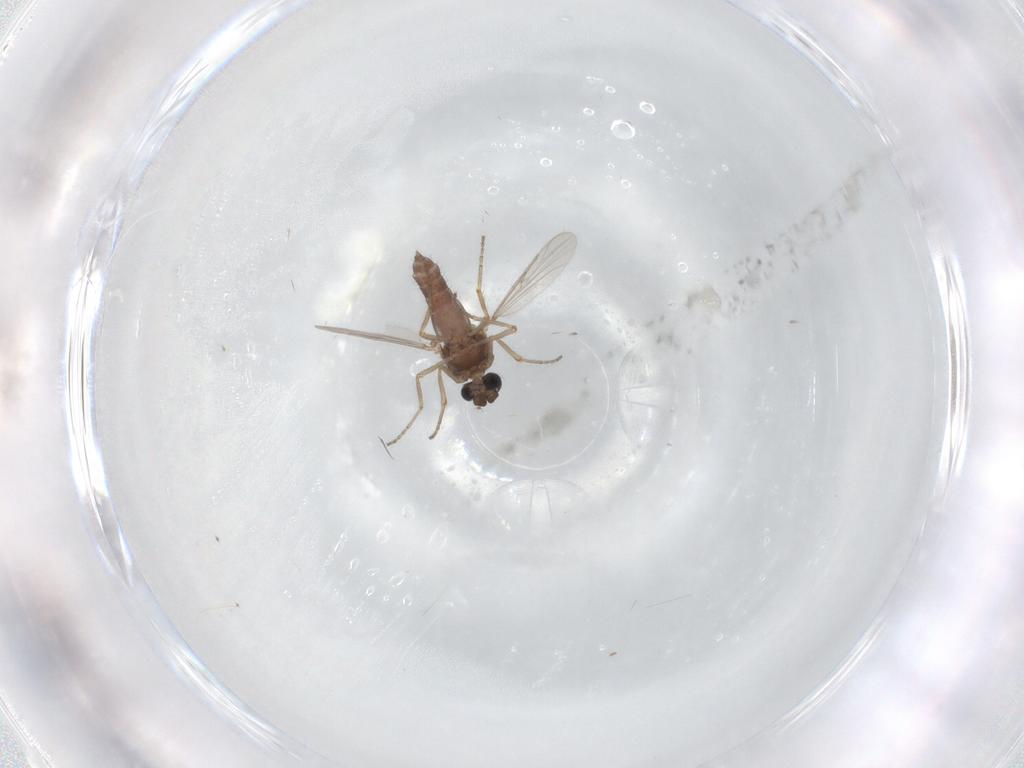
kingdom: Animalia
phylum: Arthropoda
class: Insecta
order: Diptera
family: Ceratopogonidae
